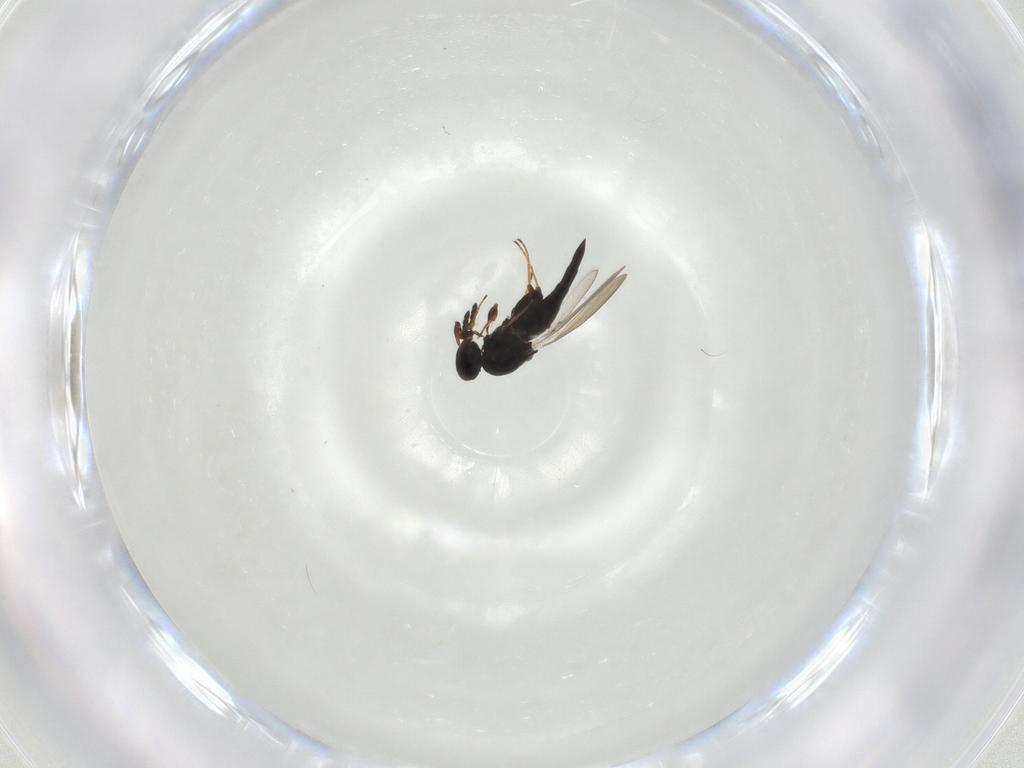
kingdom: Animalia
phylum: Arthropoda
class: Insecta
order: Hymenoptera
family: Platygastridae
